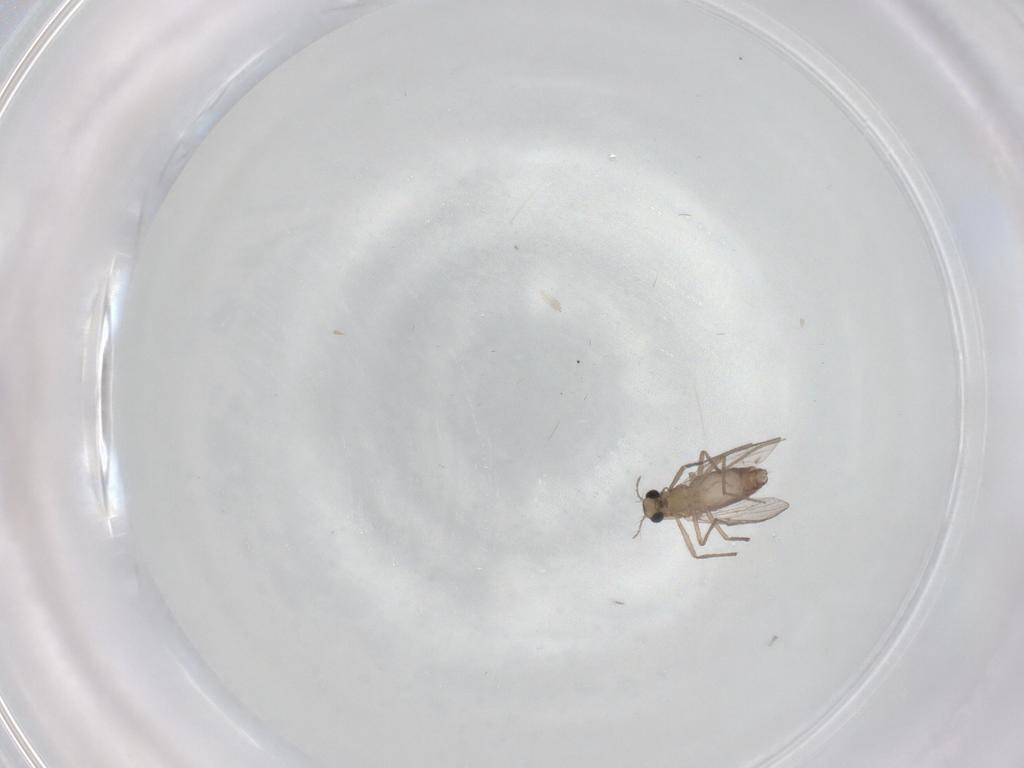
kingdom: Animalia
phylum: Arthropoda
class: Insecta
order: Diptera
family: Chironomidae
